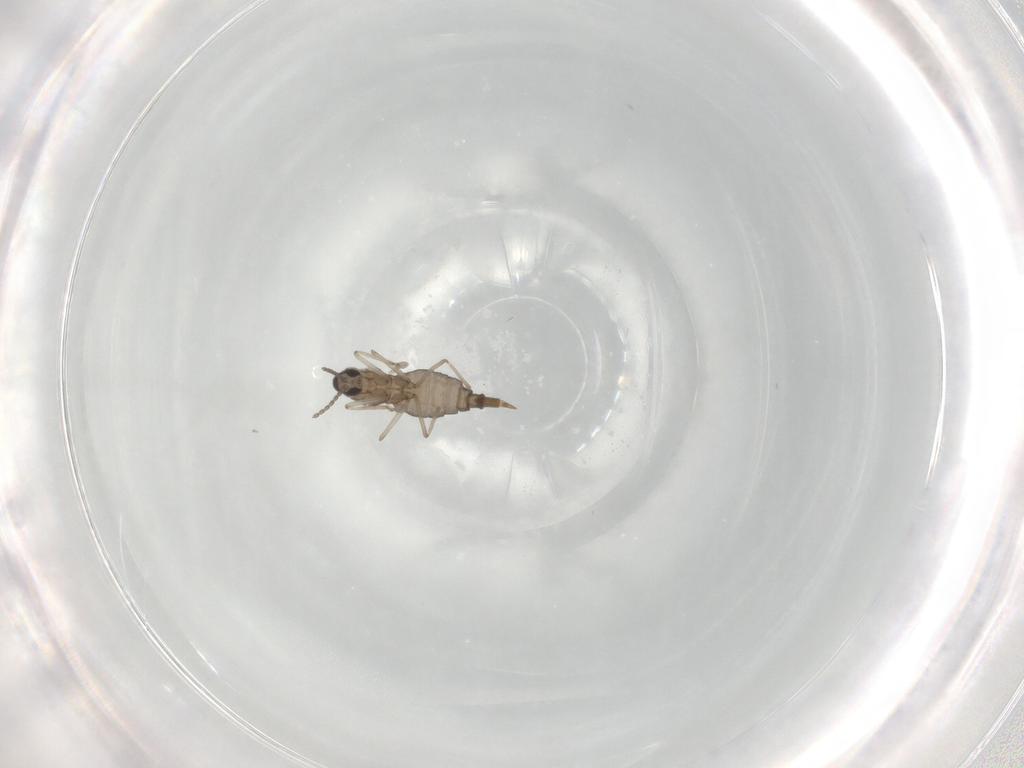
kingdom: Animalia
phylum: Arthropoda
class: Insecta
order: Diptera
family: Cecidomyiidae
